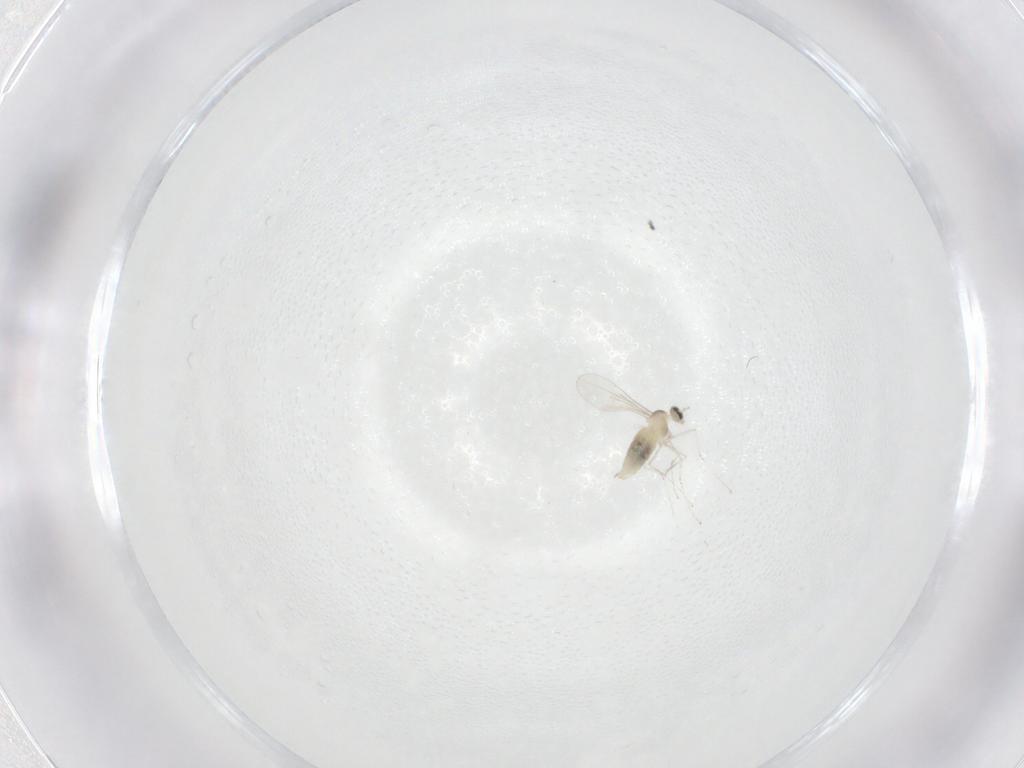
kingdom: Animalia
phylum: Arthropoda
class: Insecta
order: Diptera
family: Cecidomyiidae
